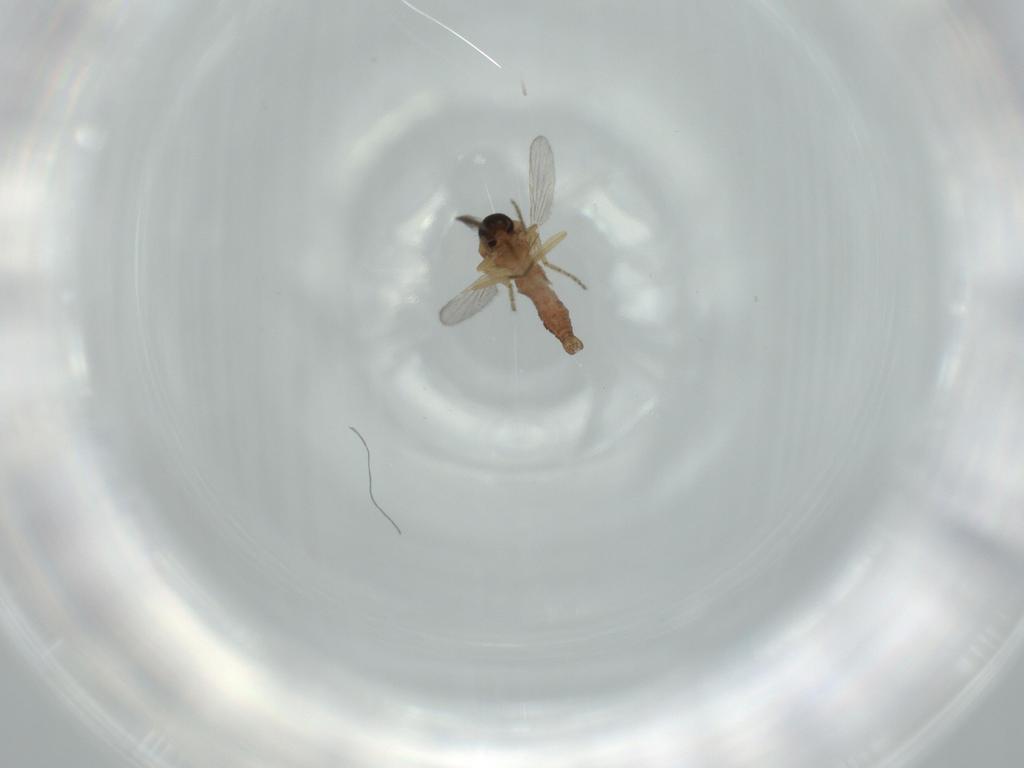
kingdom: Animalia
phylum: Arthropoda
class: Insecta
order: Diptera
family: Ceratopogonidae
